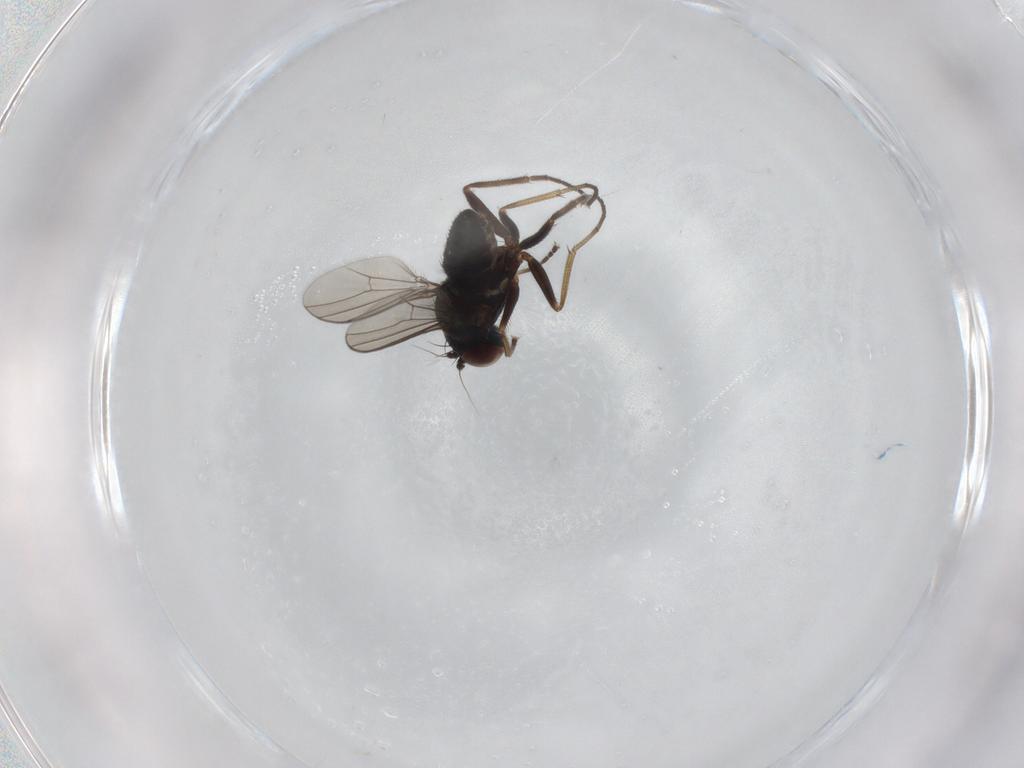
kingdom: Animalia
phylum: Arthropoda
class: Insecta
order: Diptera
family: Dolichopodidae
